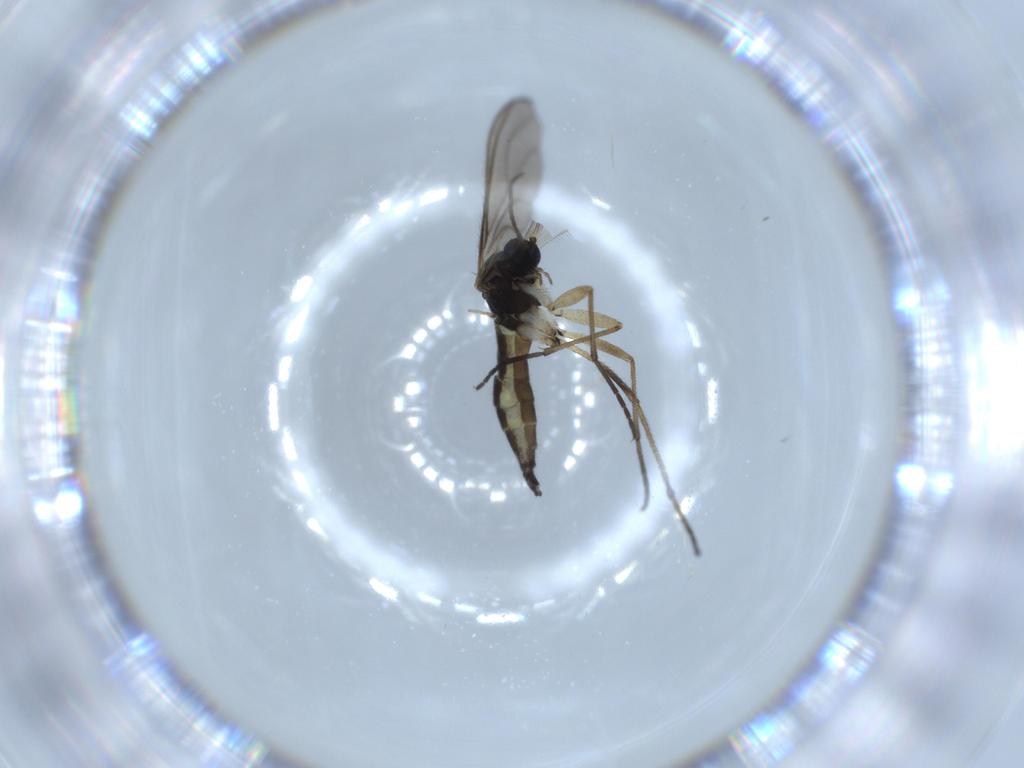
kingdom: Animalia
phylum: Arthropoda
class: Insecta
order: Diptera
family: Sciaridae
